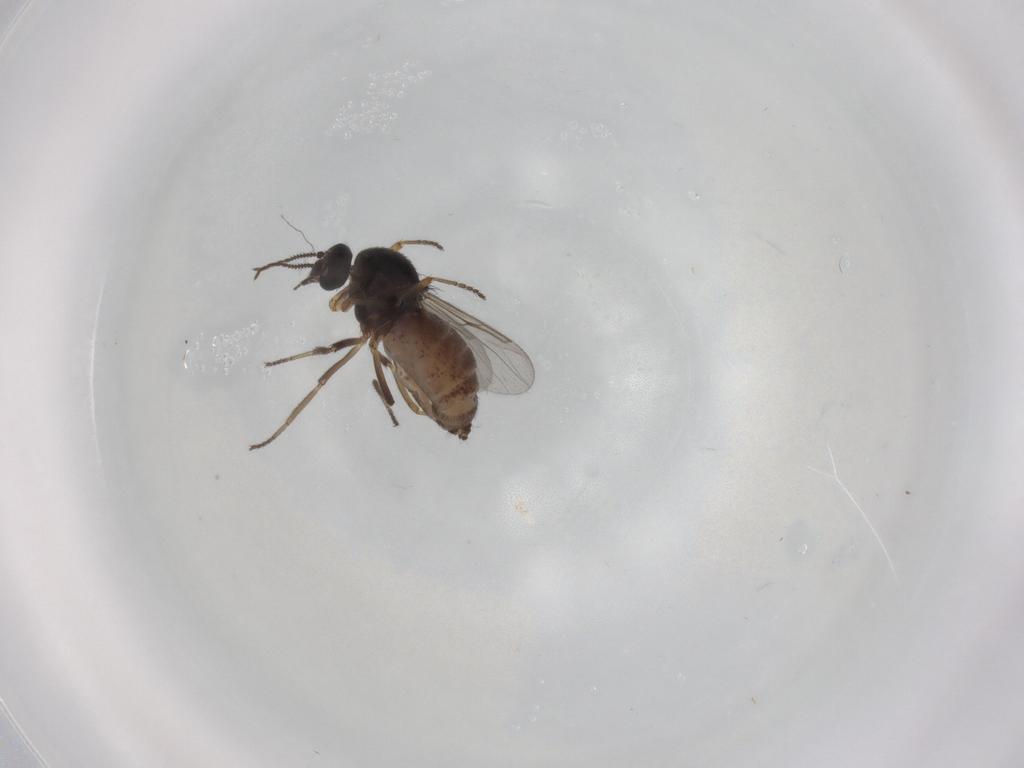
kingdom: Animalia
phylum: Arthropoda
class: Insecta
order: Diptera
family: Ceratopogonidae
